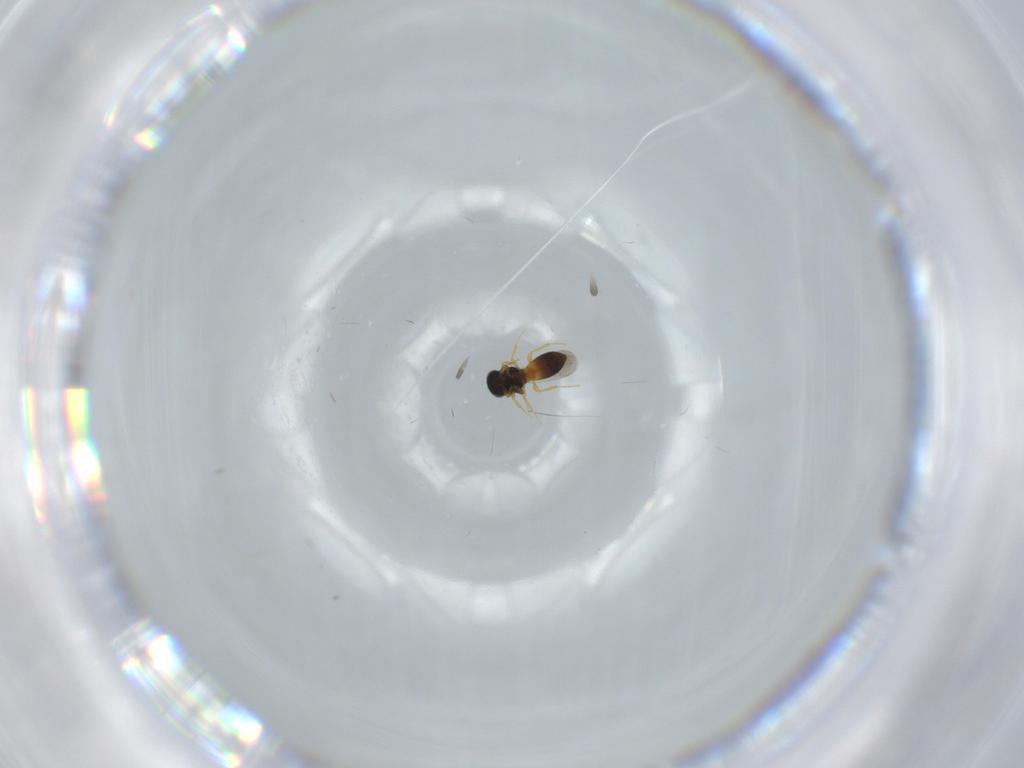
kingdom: Animalia
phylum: Arthropoda
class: Insecta
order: Hymenoptera
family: Platygastridae
